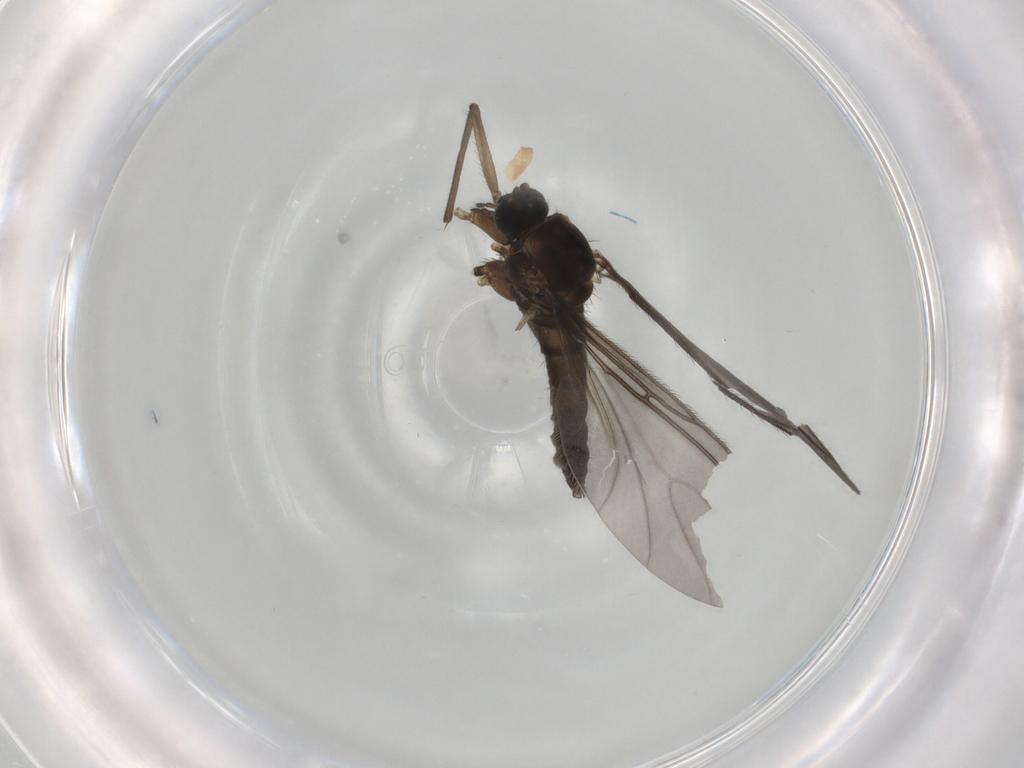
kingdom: Animalia
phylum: Arthropoda
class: Insecta
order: Diptera
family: Sciaridae
